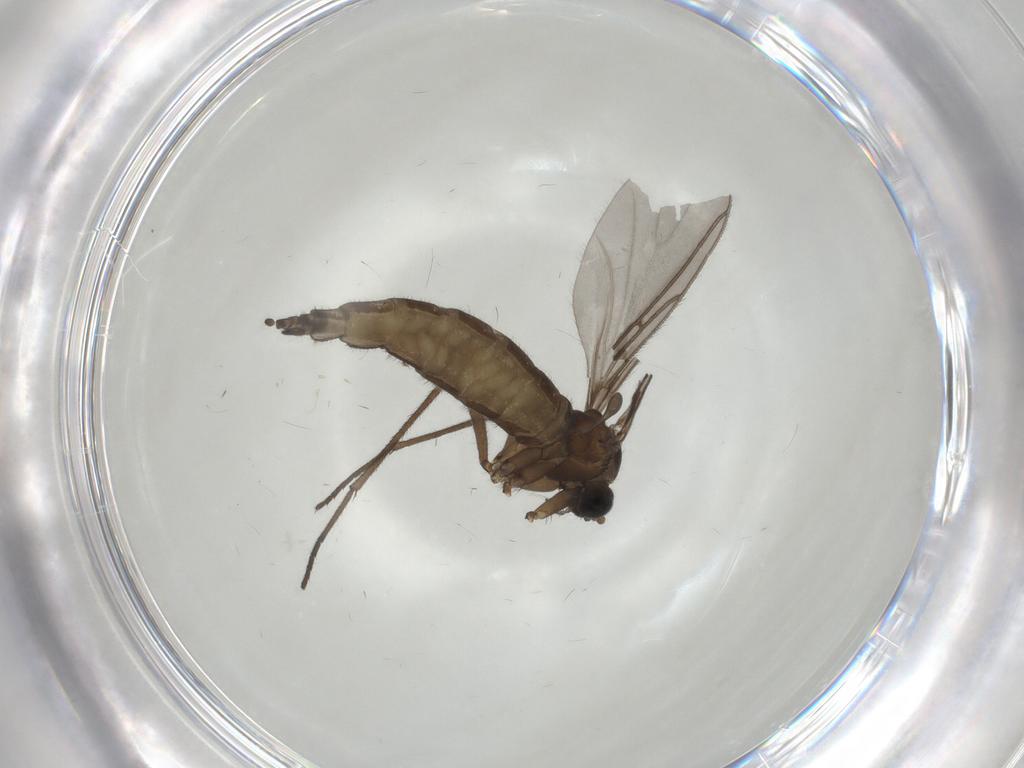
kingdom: Animalia
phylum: Arthropoda
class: Insecta
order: Diptera
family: Sciaridae
